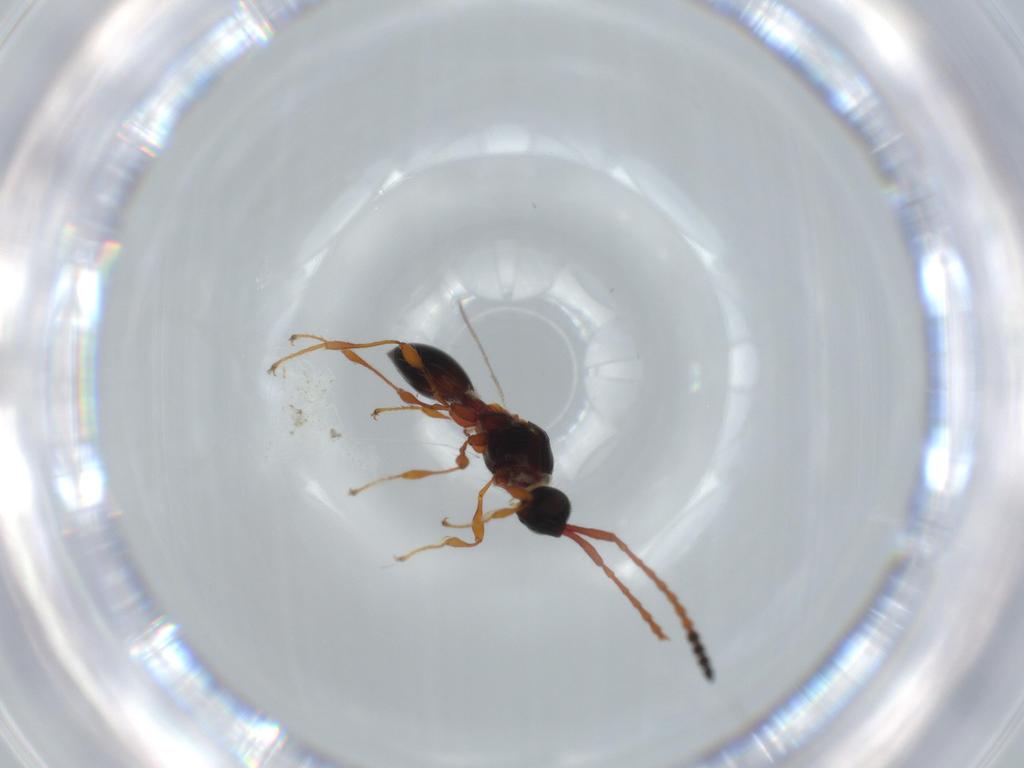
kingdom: Animalia
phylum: Arthropoda
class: Insecta
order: Hymenoptera
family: Diapriidae
